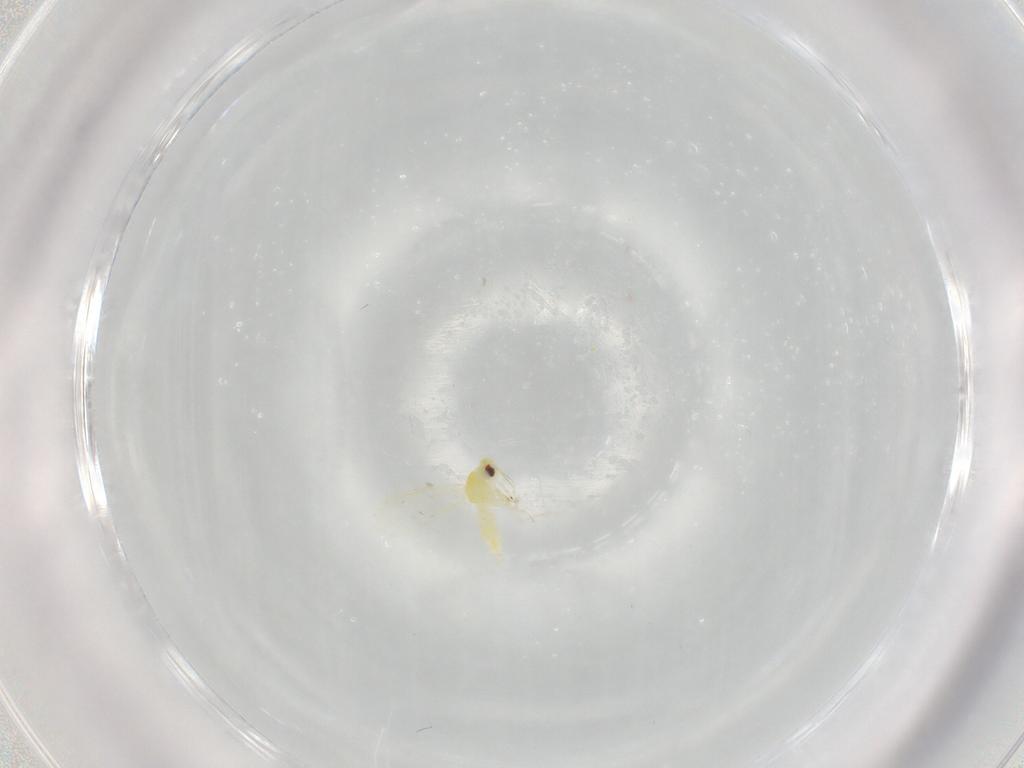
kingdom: Animalia
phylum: Arthropoda
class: Insecta
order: Hemiptera
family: Aleyrodidae
